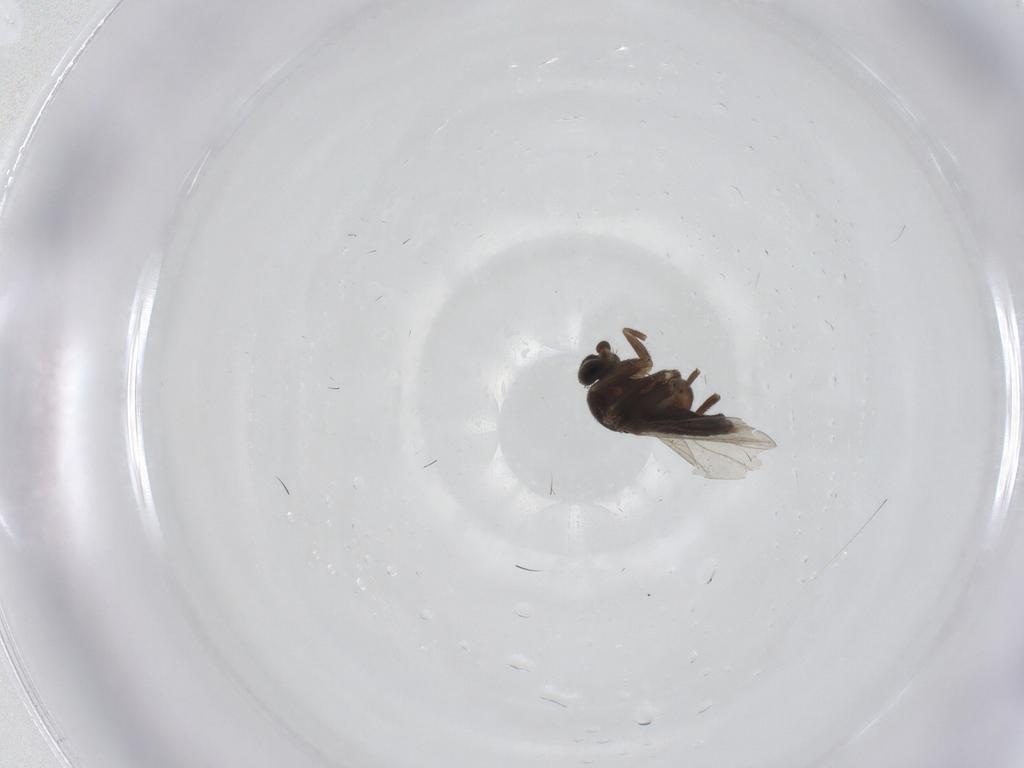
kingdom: Animalia
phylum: Arthropoda
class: Insecta
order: Diptera
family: Phoridae
